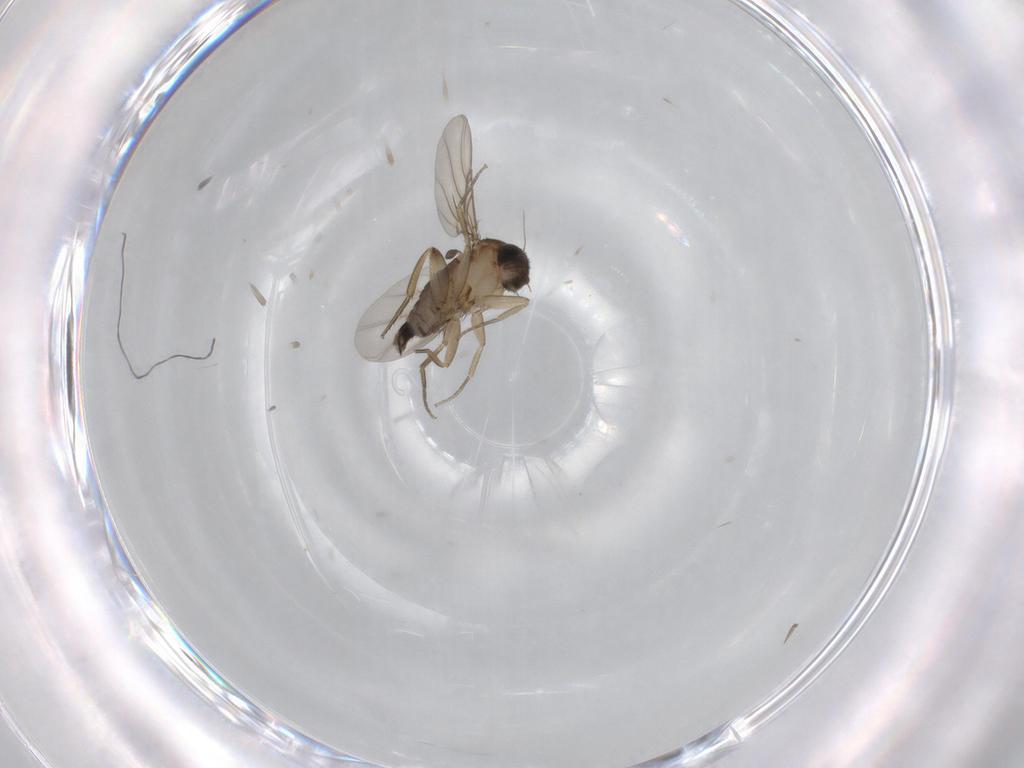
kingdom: Animalia
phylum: Arthropoda
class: Insecta
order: Diptera
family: Phoridae
